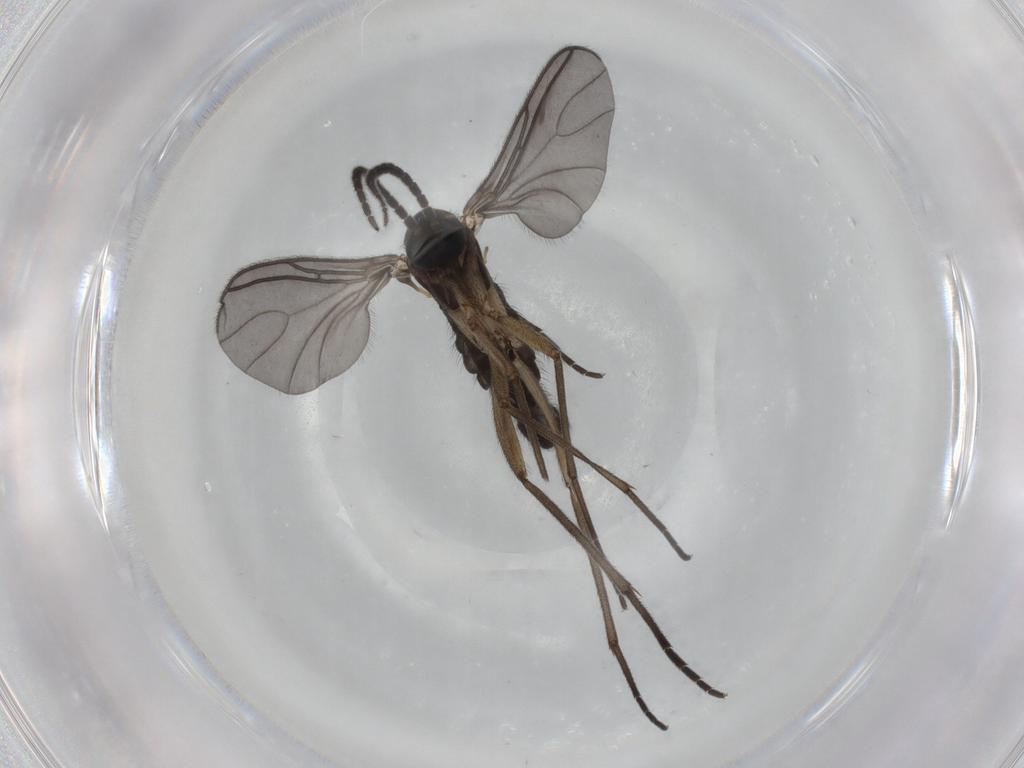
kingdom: Animalia
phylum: Arthropoda
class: Insecta
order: Diptera
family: Sciaridae
